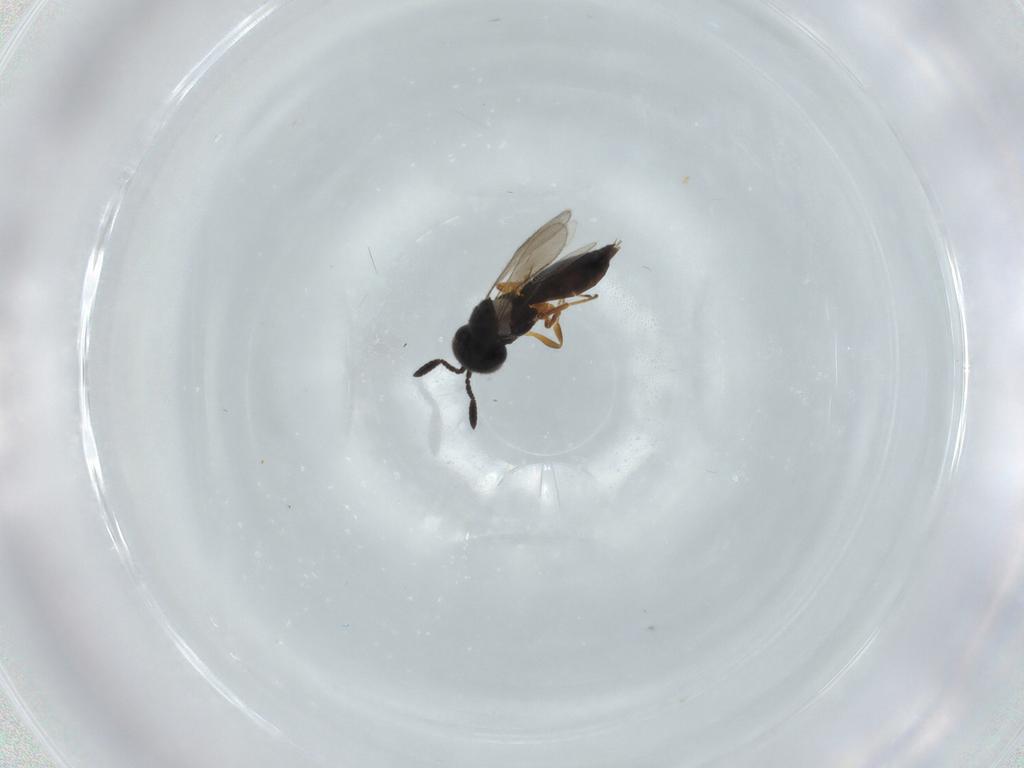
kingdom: Animalia
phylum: Arthropoda
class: Insecta
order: Hymenoptera
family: Scelionidae
